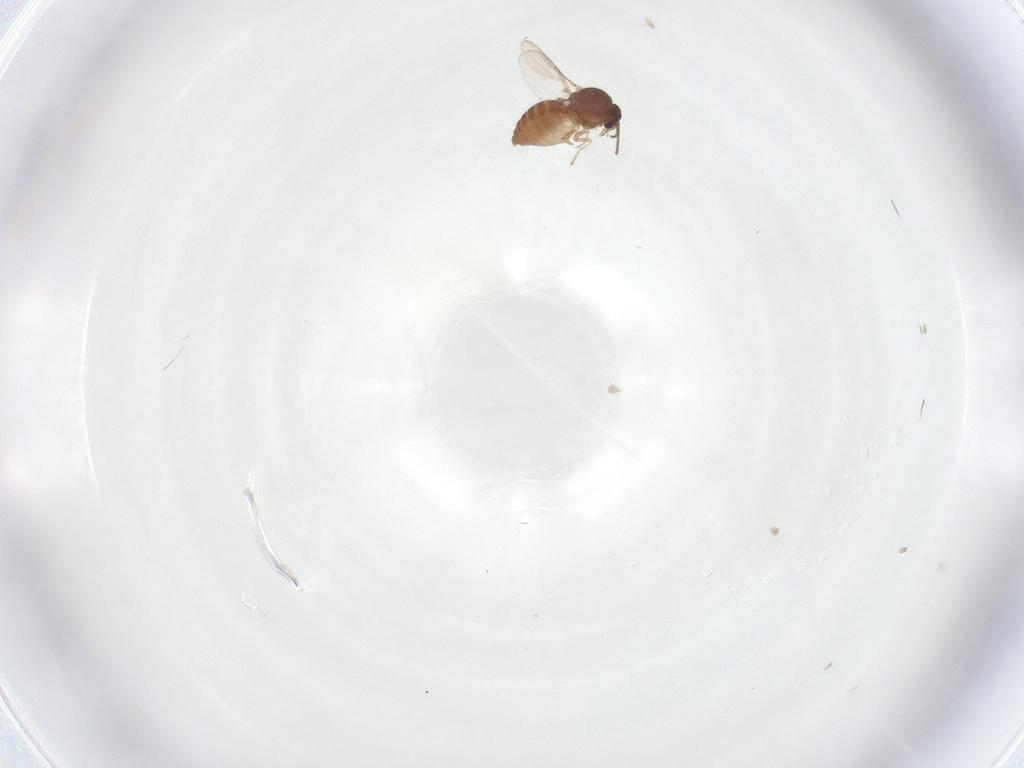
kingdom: Animalia
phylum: Arthropoda
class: Insecta
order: Diptera
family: Ceratopogonidae
